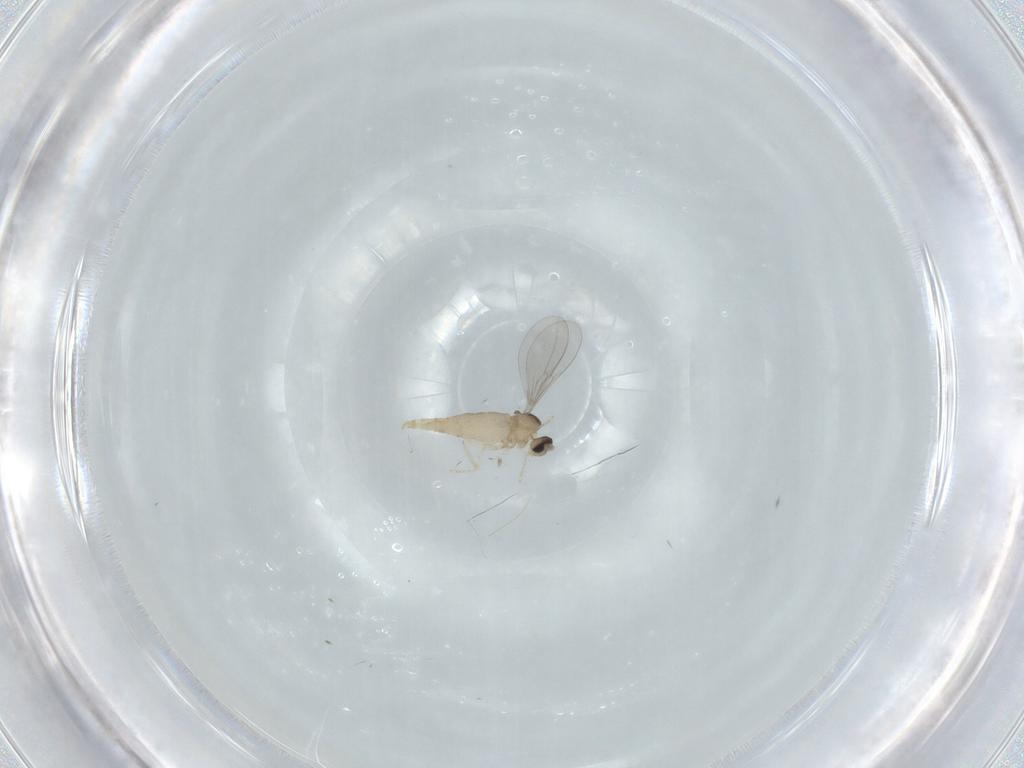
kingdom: Animalia
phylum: Arthropoda
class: Insecta
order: Diptera
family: Cecidomyiidae
